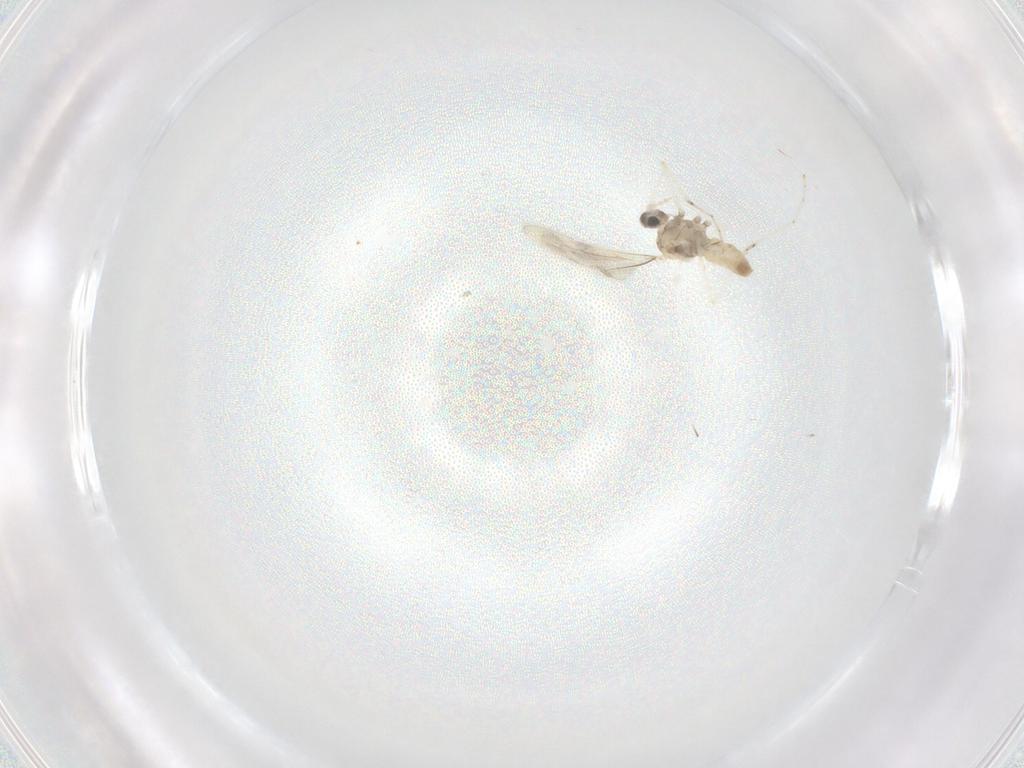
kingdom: Animalia
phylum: Arthropoda
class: Insecta
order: Diptera
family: Cecidomyiidae
